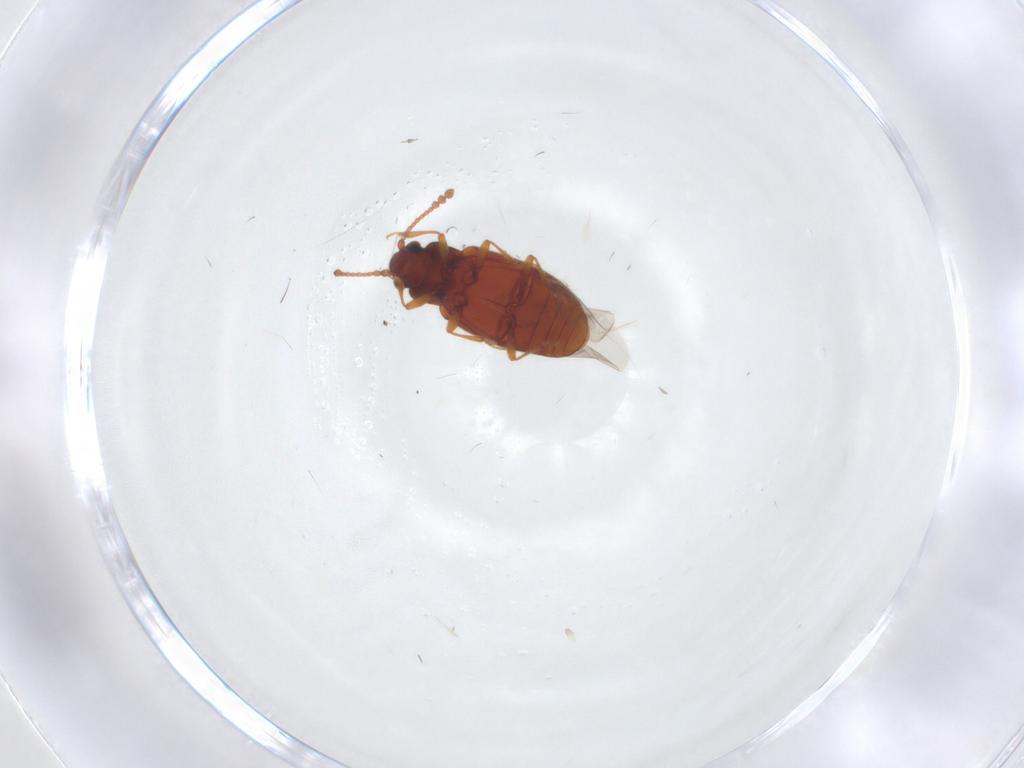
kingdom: Animalia
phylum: Arthropoda
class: Insecta
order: Coleoptera
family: Cryptophagidae
